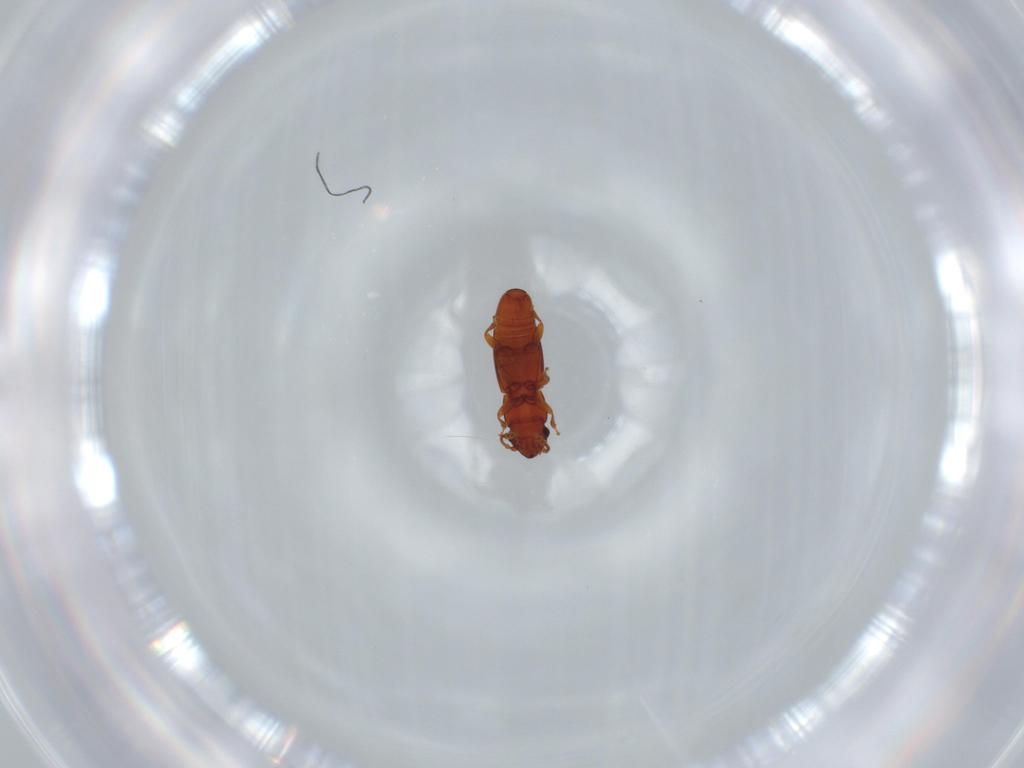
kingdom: Animalia
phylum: Arthropoda
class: Insecta
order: Coleoptera
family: Smicripidae
